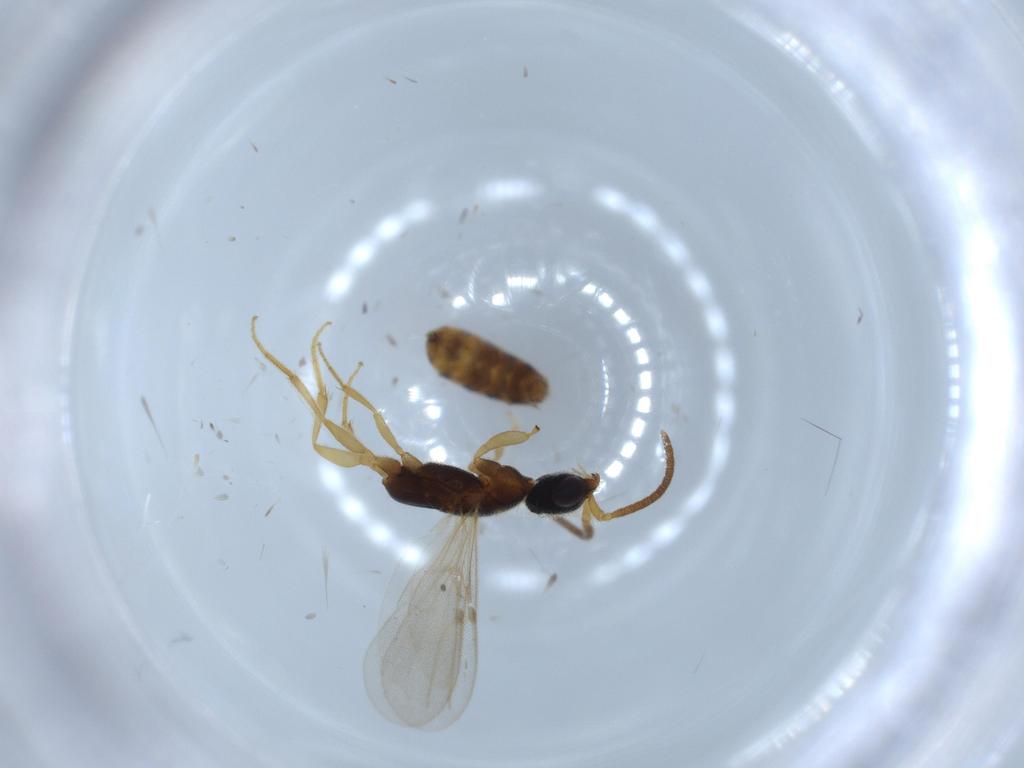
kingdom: Animalia
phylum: Arthropoda
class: Insecta
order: Hymenoptera
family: Bethylidae
